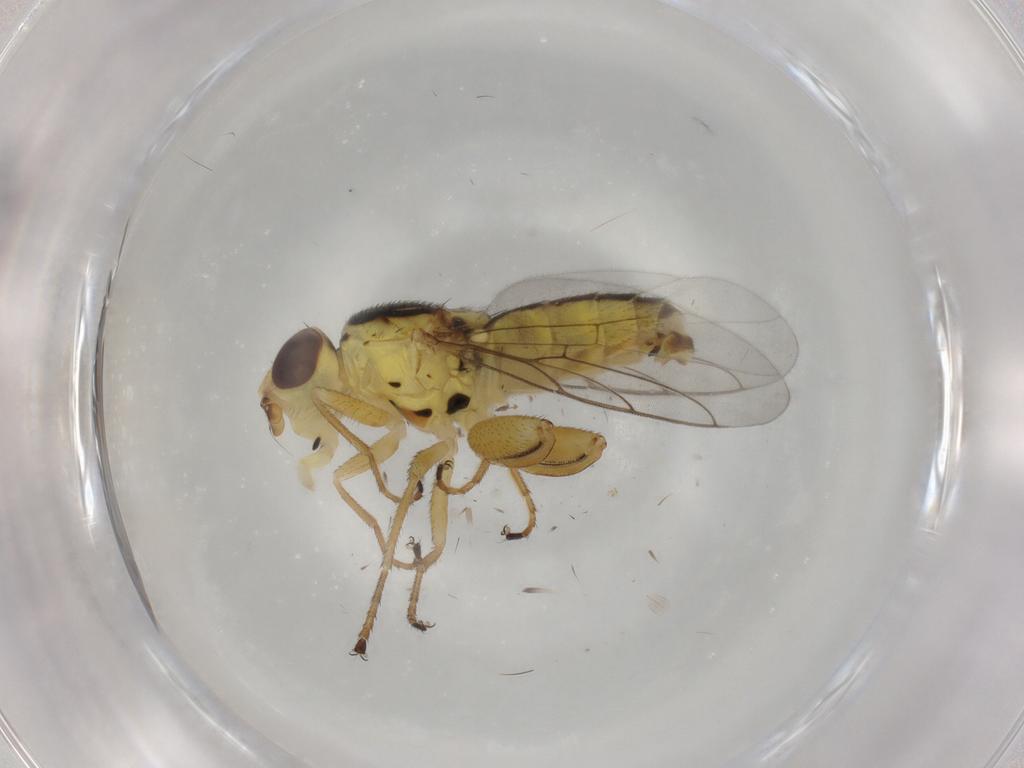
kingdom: Animalia
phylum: Arthropoda
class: Insecta
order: Diptera
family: Chloropidae
